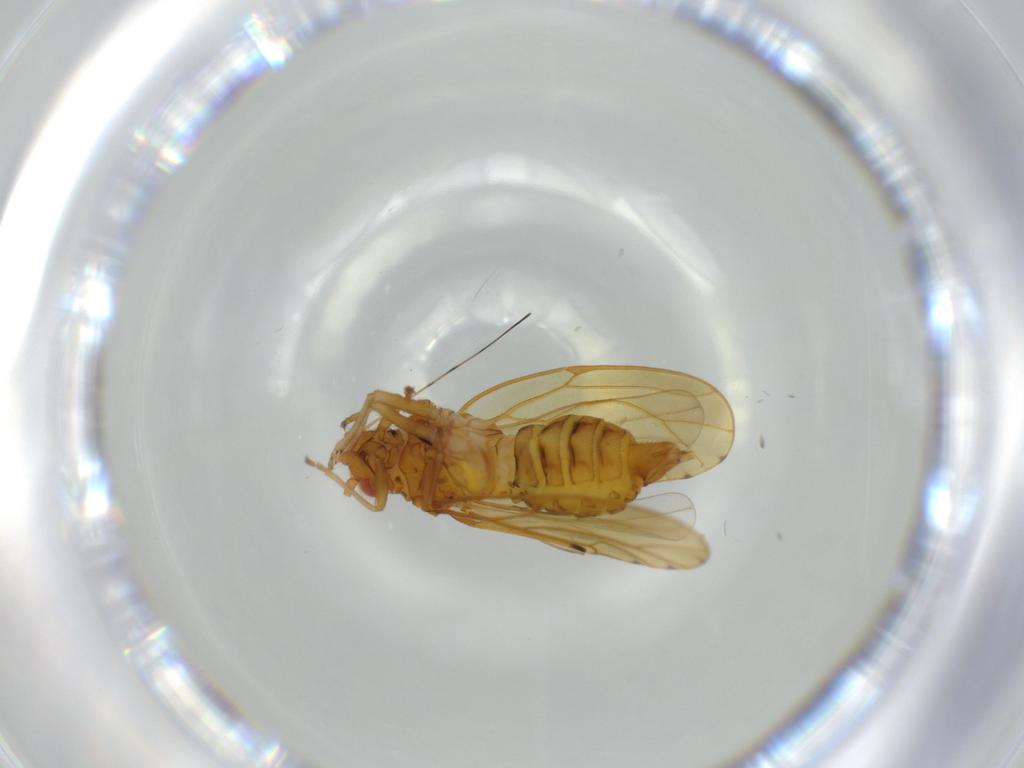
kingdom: Animalia
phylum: Arthropoda
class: Insecta
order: Hemiptera
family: Psylloidea_incertae_sedis
